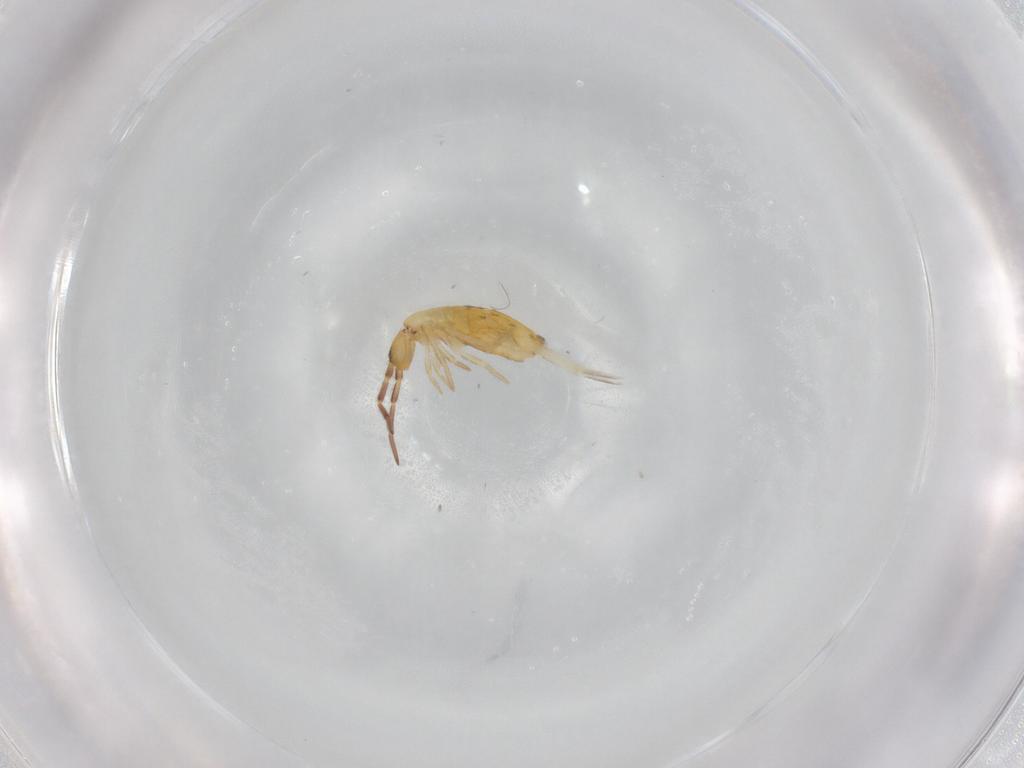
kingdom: Animalia
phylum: Arthropoda
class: Collembola
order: Entomobryomorpha
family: Entomobryidae
